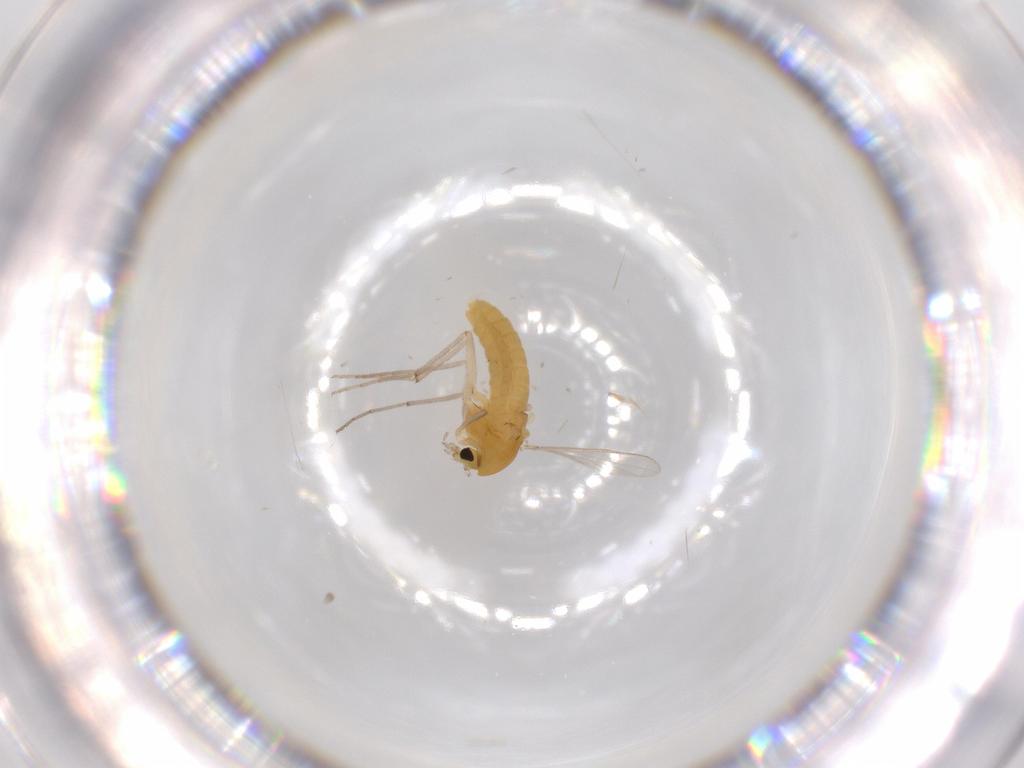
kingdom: Animalia
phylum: Arthropoda
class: Insecta
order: Diptera
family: Chironomidae
